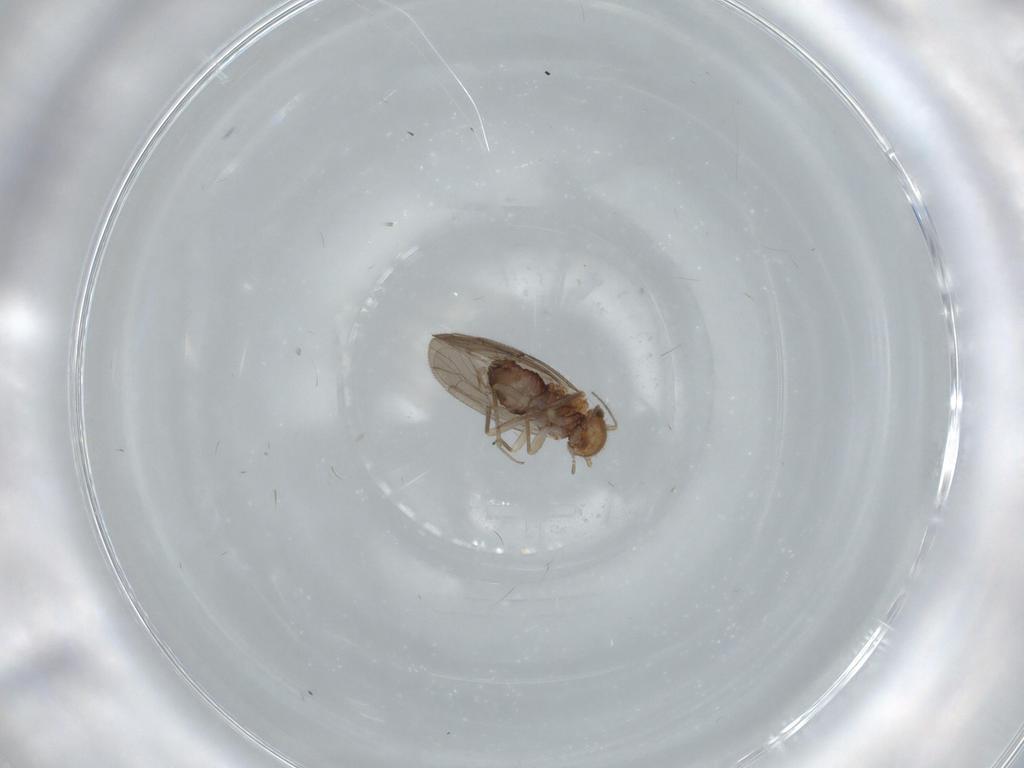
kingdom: Animalia
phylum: Arthropoda
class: Insecta
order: Psocodea
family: Ectopsocidae
